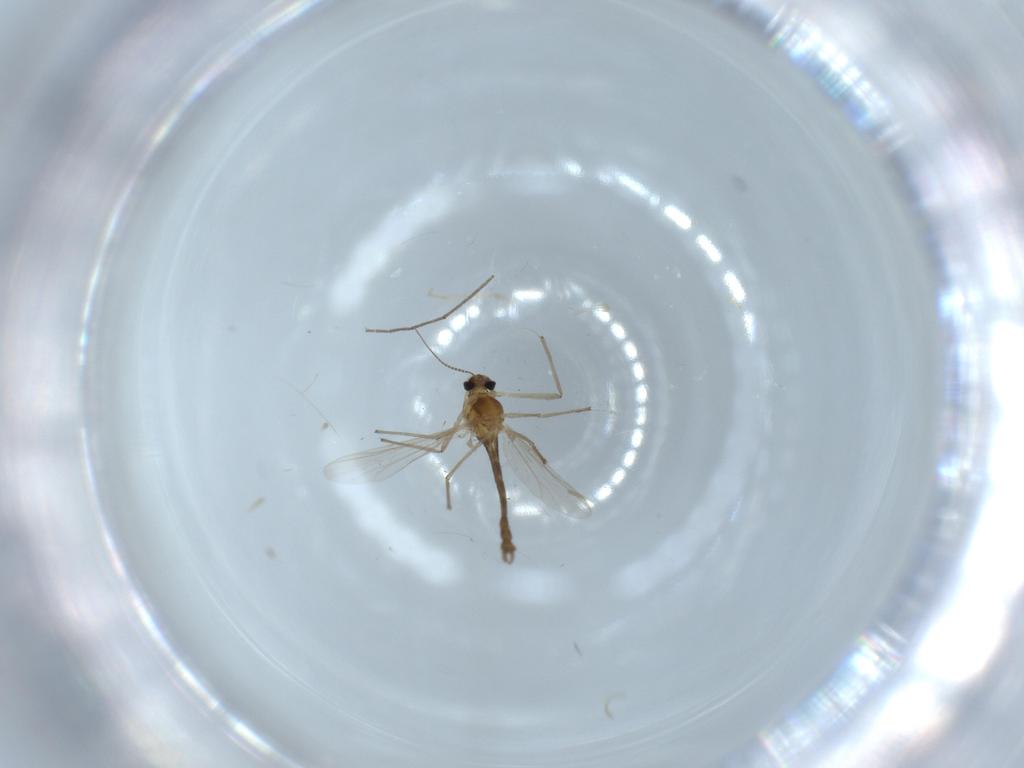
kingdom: Animalia
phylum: Arthropoda
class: Insecta
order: Diptera
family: Chironomidae
